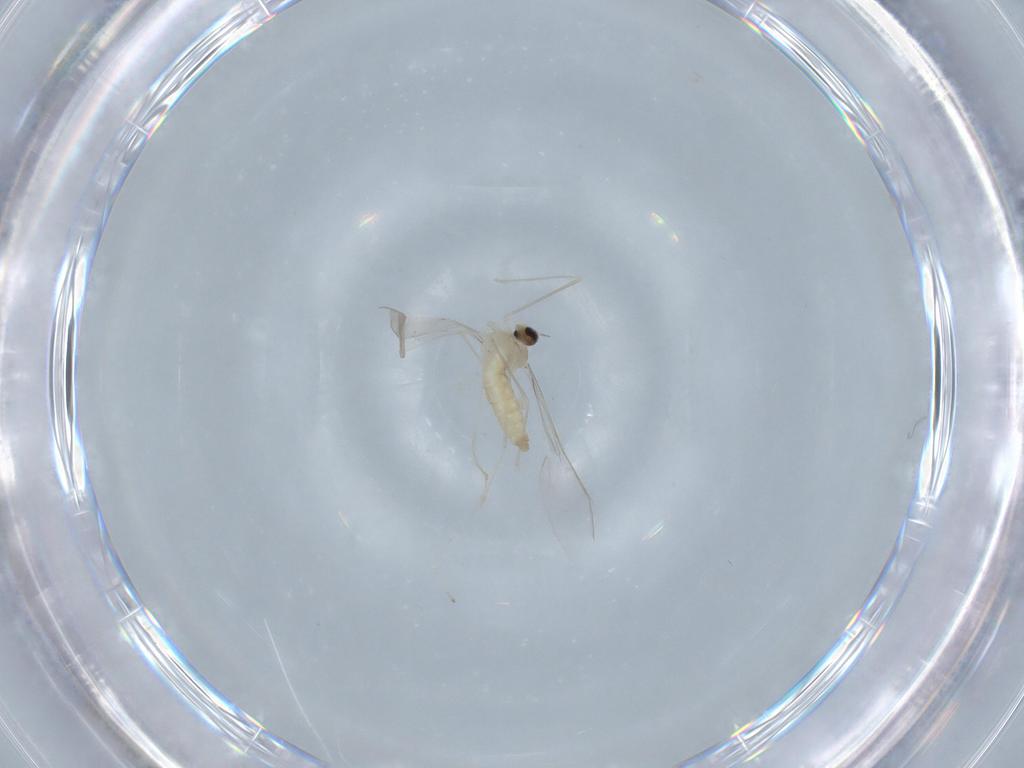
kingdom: Animalia
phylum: Arthropoda
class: Insecta
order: Diptera
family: Cecidomyiidae
